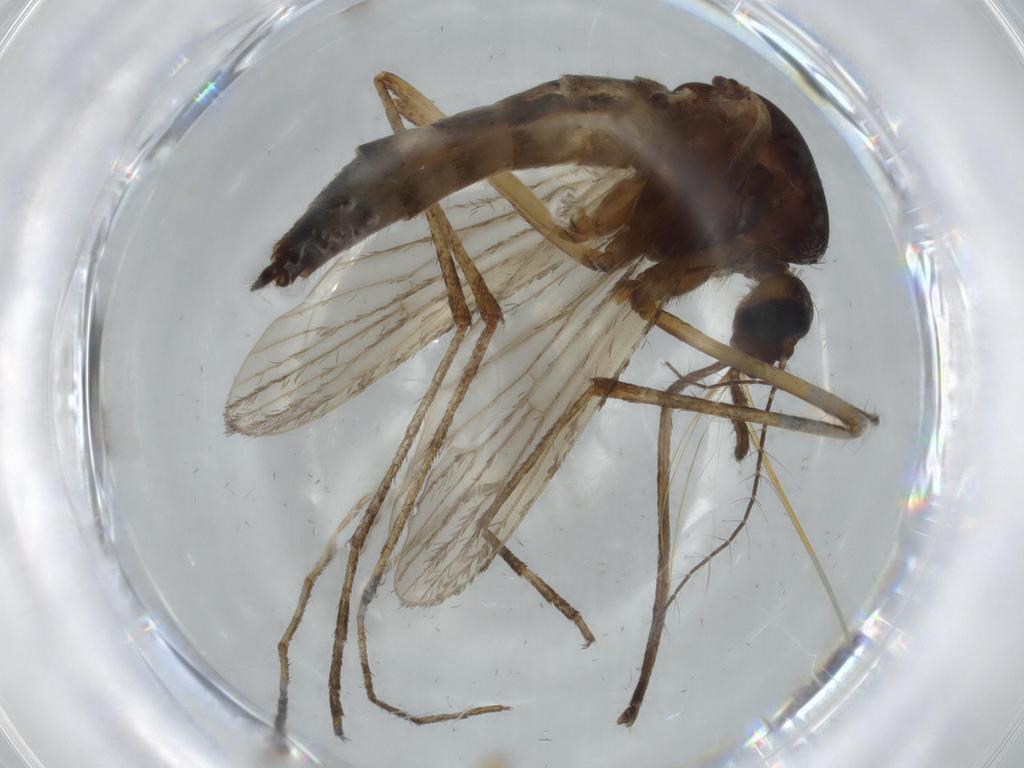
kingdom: Animalia
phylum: Arthropoda
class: Insecta
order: Diptera
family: Culicidae
